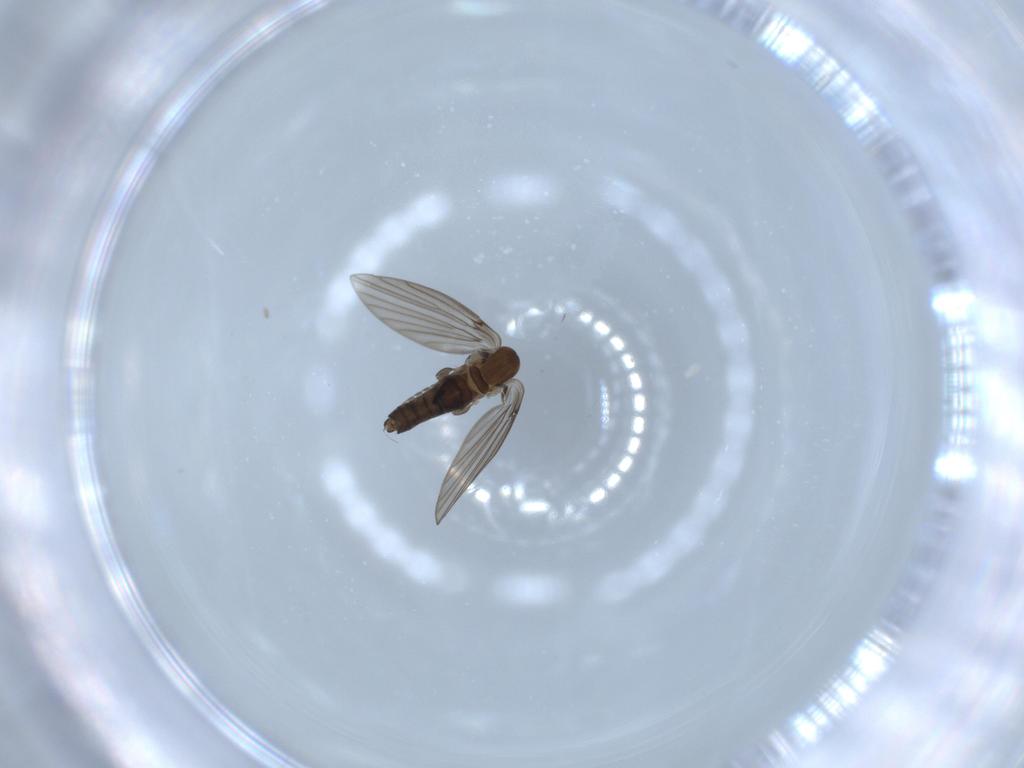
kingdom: Animalia
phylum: Arthropoda
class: Insecta
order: Diptera
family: Psychodidae
